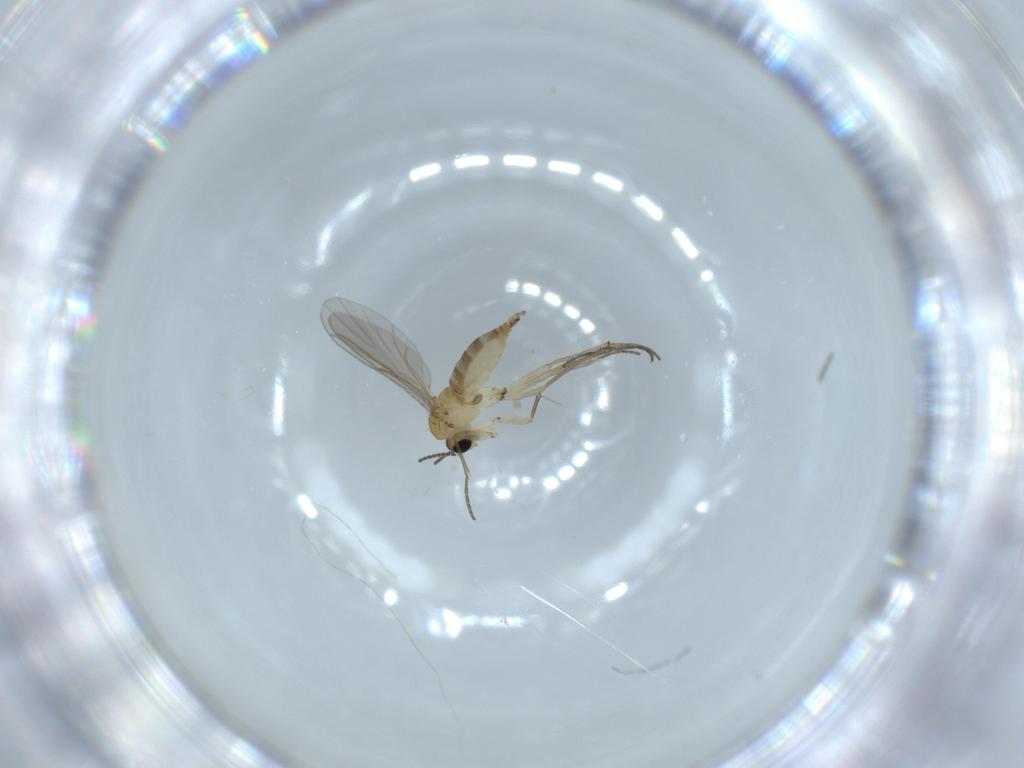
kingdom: Animalia
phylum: Arthropoda
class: Insecta
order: Diptera
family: Sciaridae
